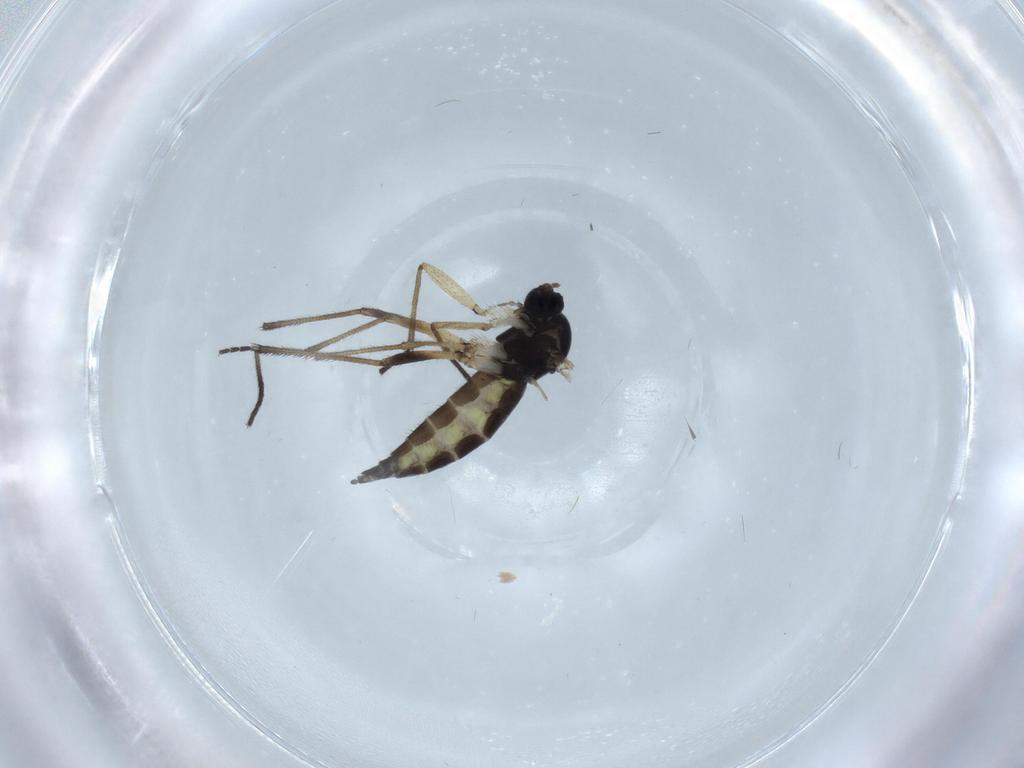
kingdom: Animalia
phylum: Arthropoda
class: Insecta
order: Diptera
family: Sciaridae
